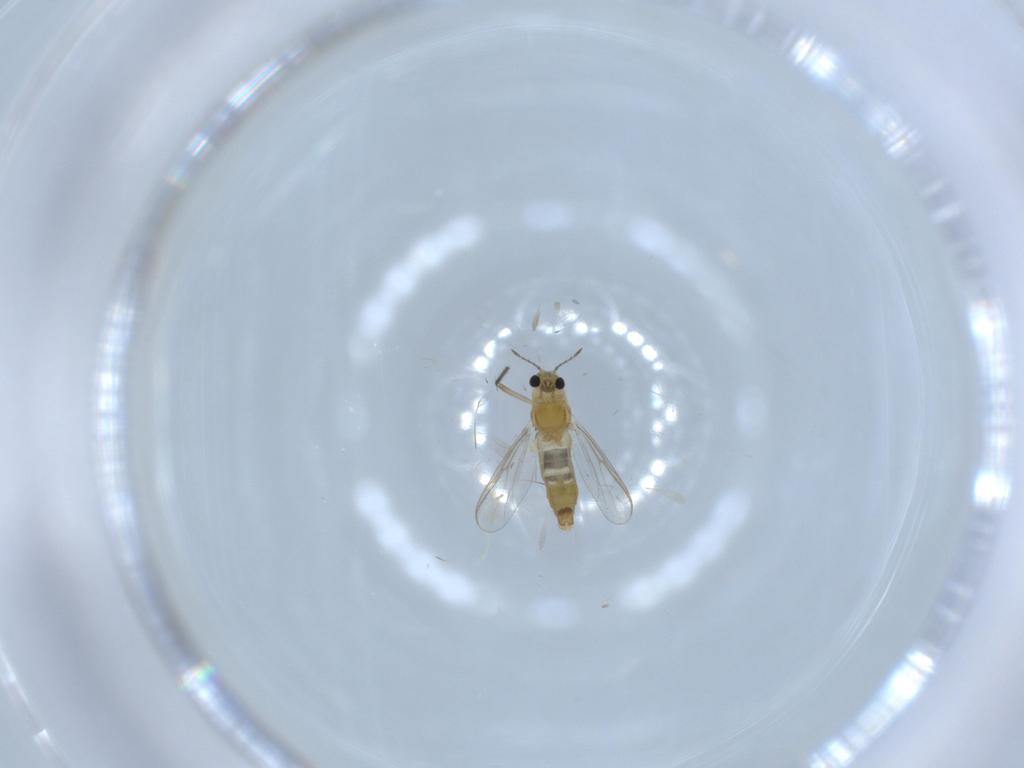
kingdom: Animalia
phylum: Arthropoda
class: Insecta
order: Diptera
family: Chironomidae
